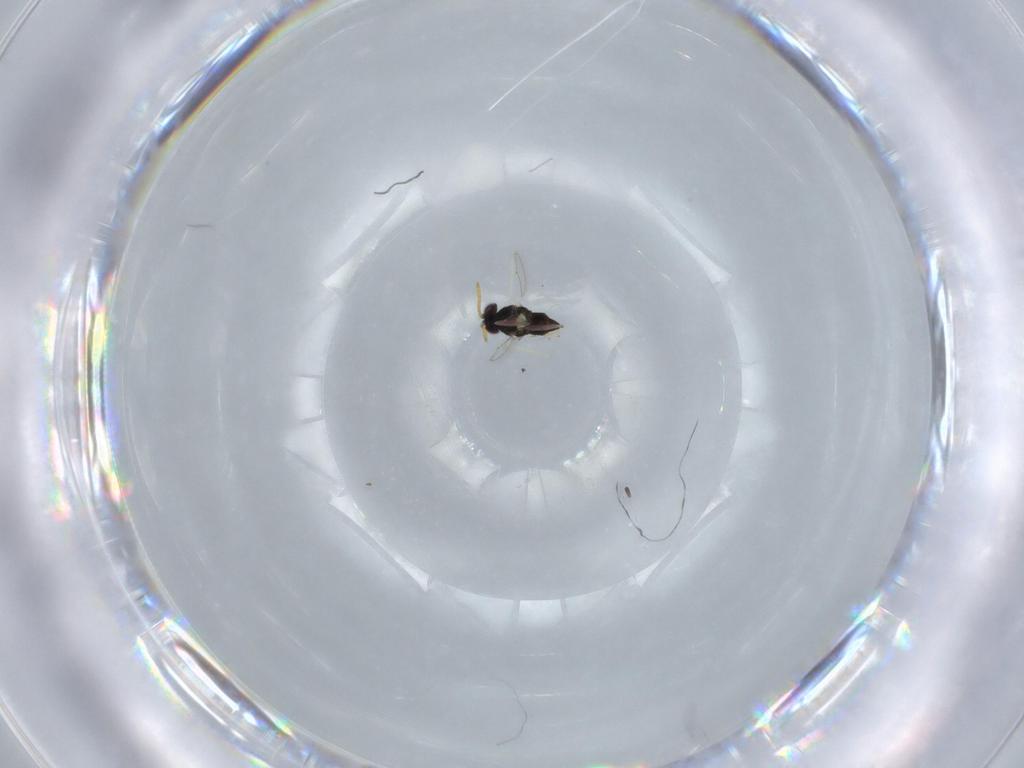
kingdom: Animalia
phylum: Arthropoda
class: Insecta
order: Hymenoptera
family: Aphelinidae
